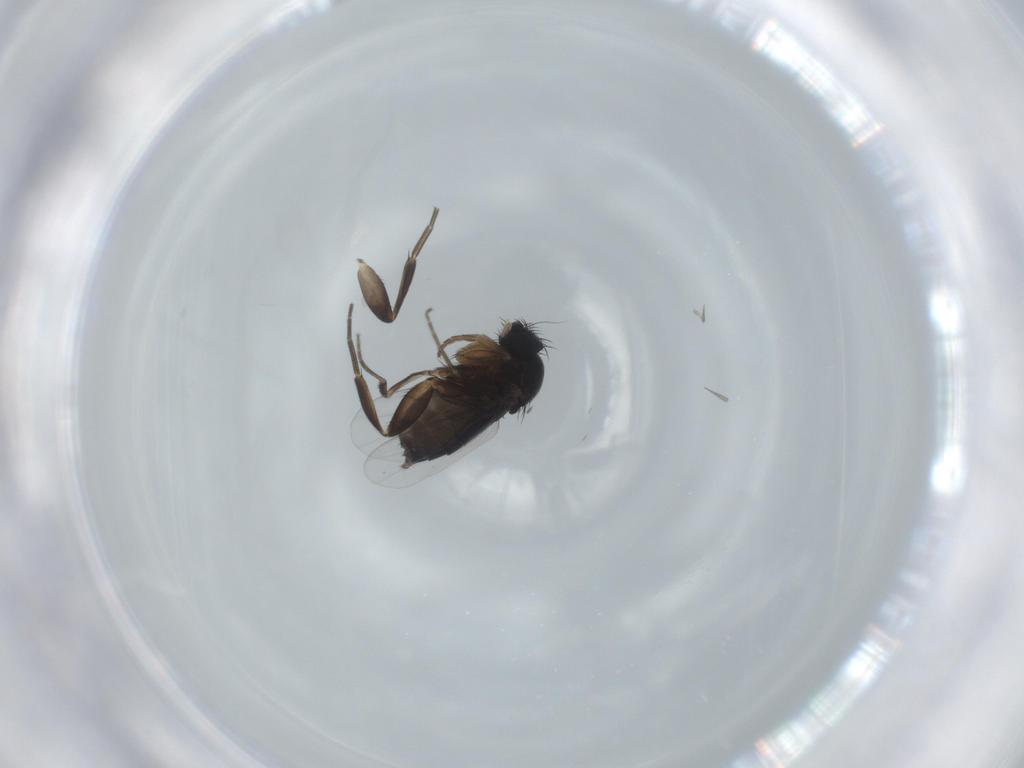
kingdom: Animalia
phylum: Arthropoda
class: Insecta
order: Diptera
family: Phoridae
